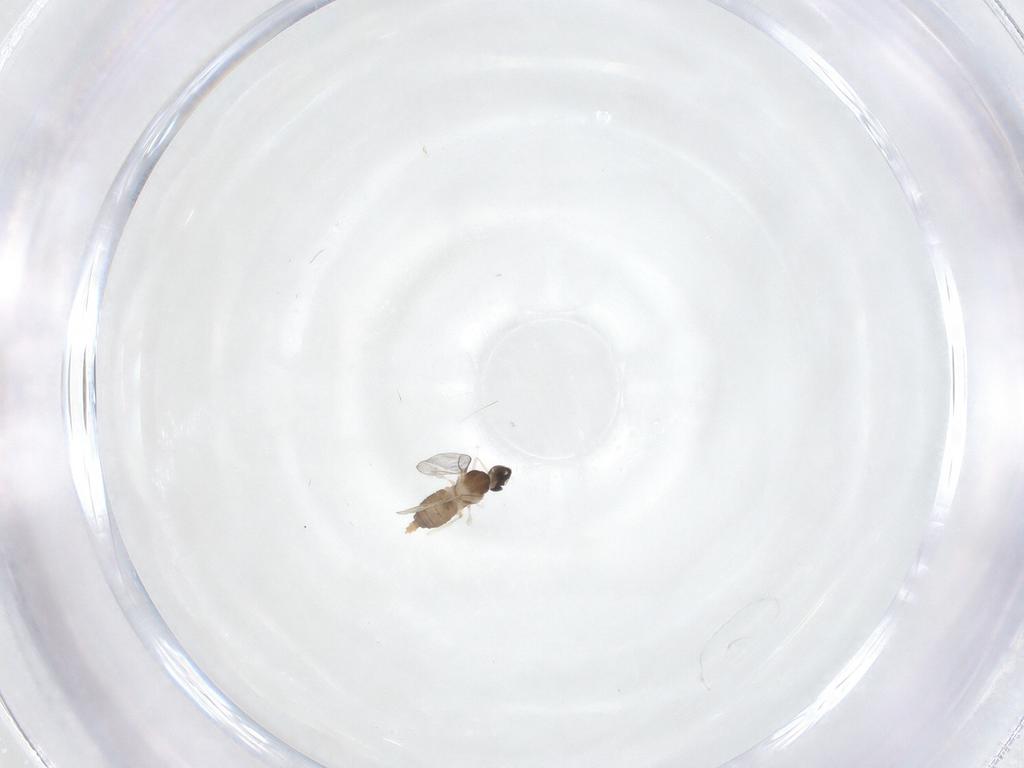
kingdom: Animalia
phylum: Arthropoda
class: Insecta
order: Diptera
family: Cecidomyiidae
